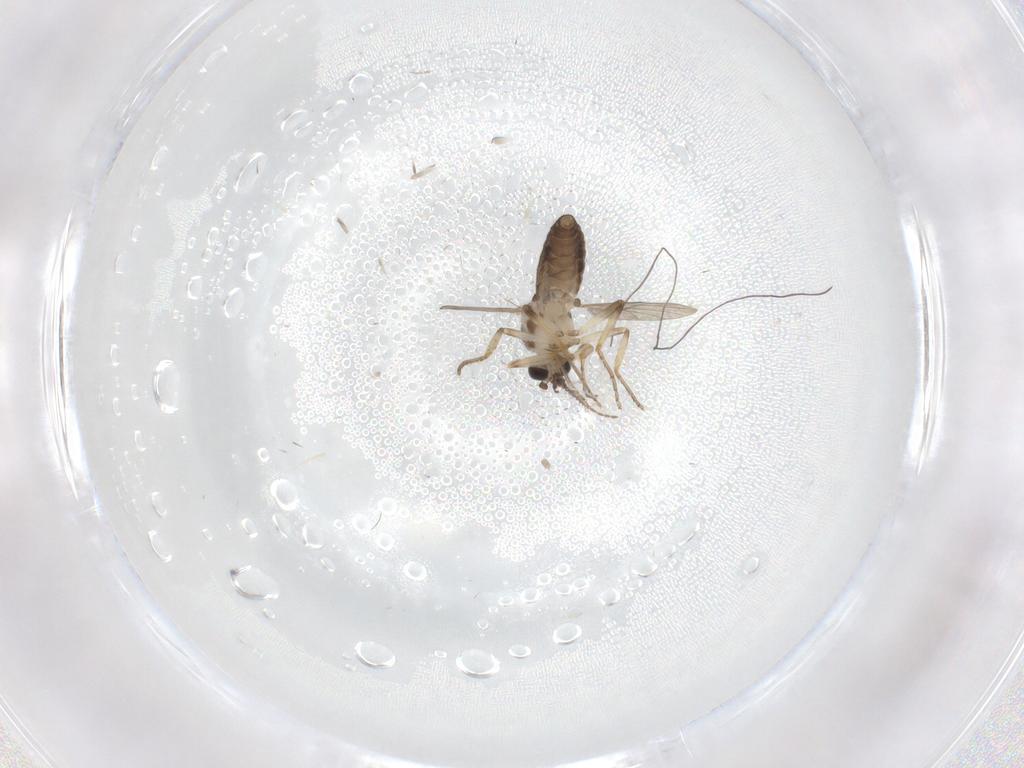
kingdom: Animalia
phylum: Arthropoda
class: Insecta
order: Diptera
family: Ceratopogonidae
